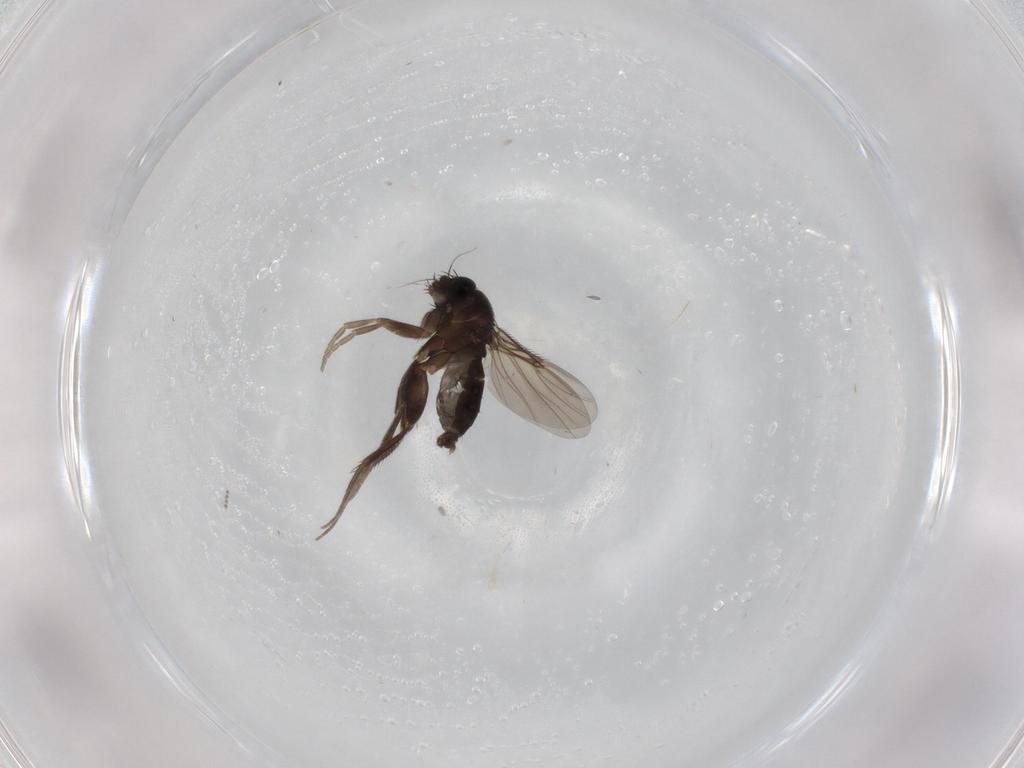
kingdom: Animalia
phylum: Arthropoda
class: Insecta
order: Diptera
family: Phoridae
